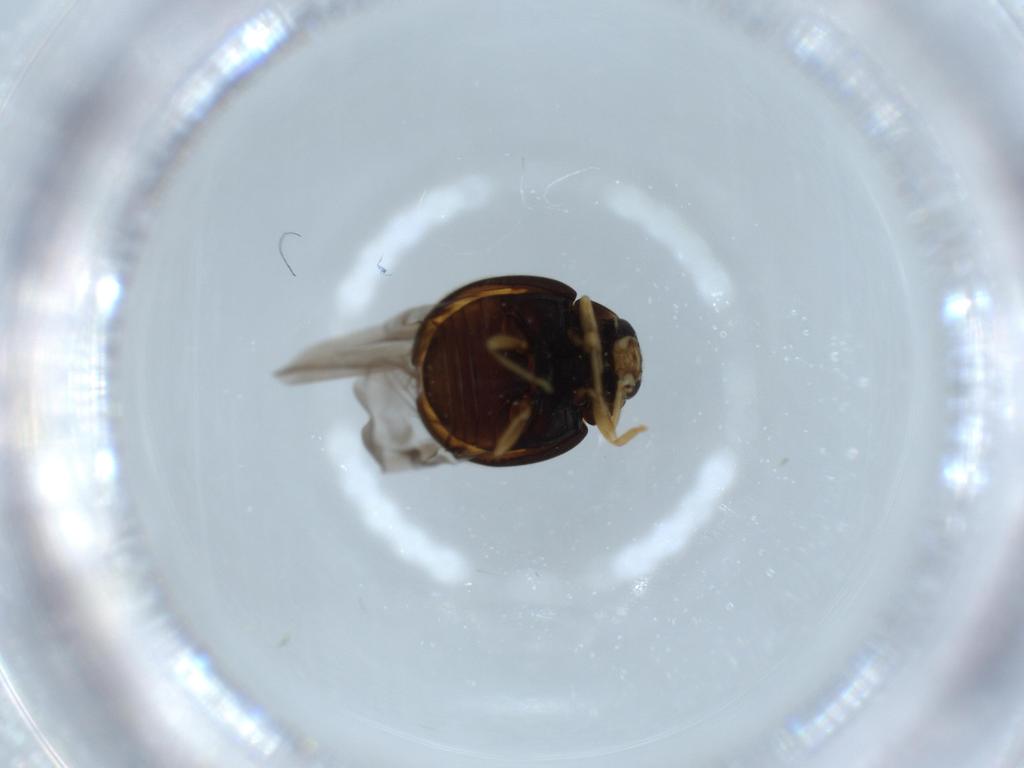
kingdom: Animalia
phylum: Arthropoda
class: Insecta
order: Coleoptera
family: Coccinellidae
